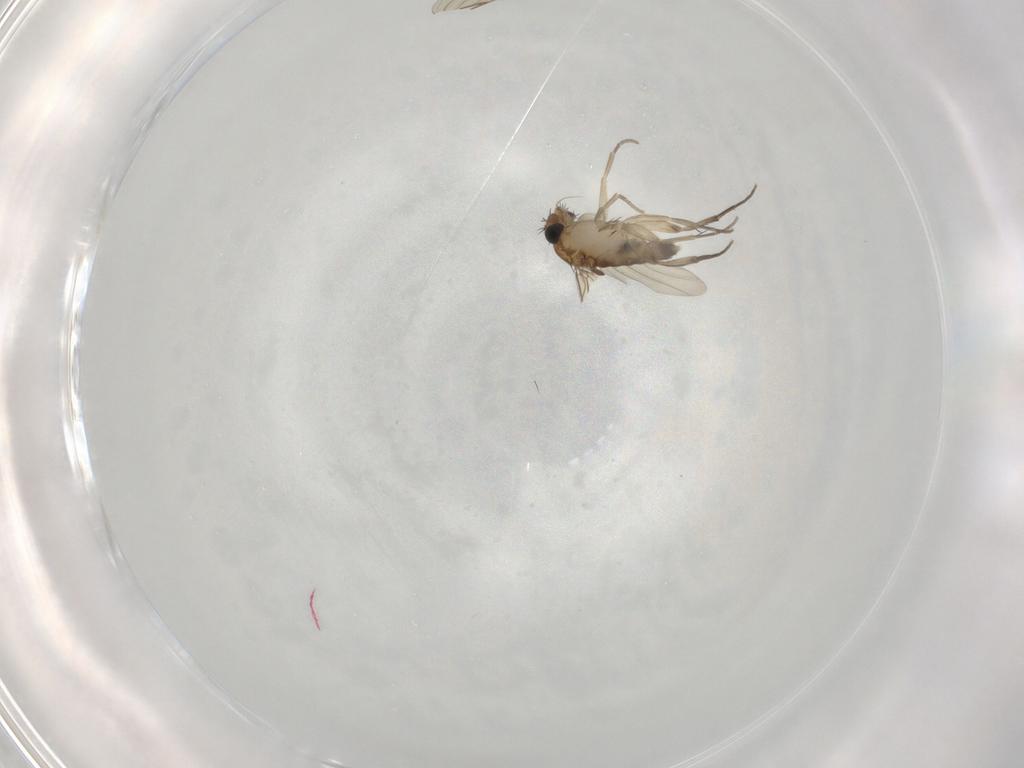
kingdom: Animalia
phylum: Arthropoda
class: Insecta
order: Diptera
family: Phoridae
